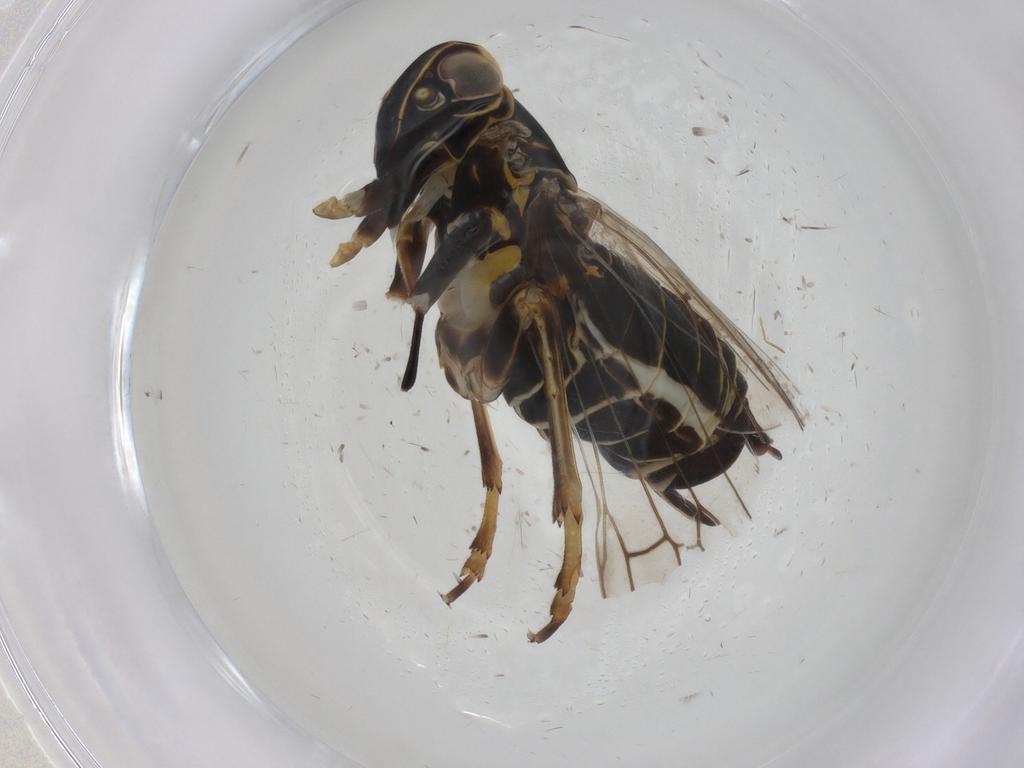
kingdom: Animalia
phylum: Arthropoda
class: Insecta
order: Hemiptera
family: Cixiidae
